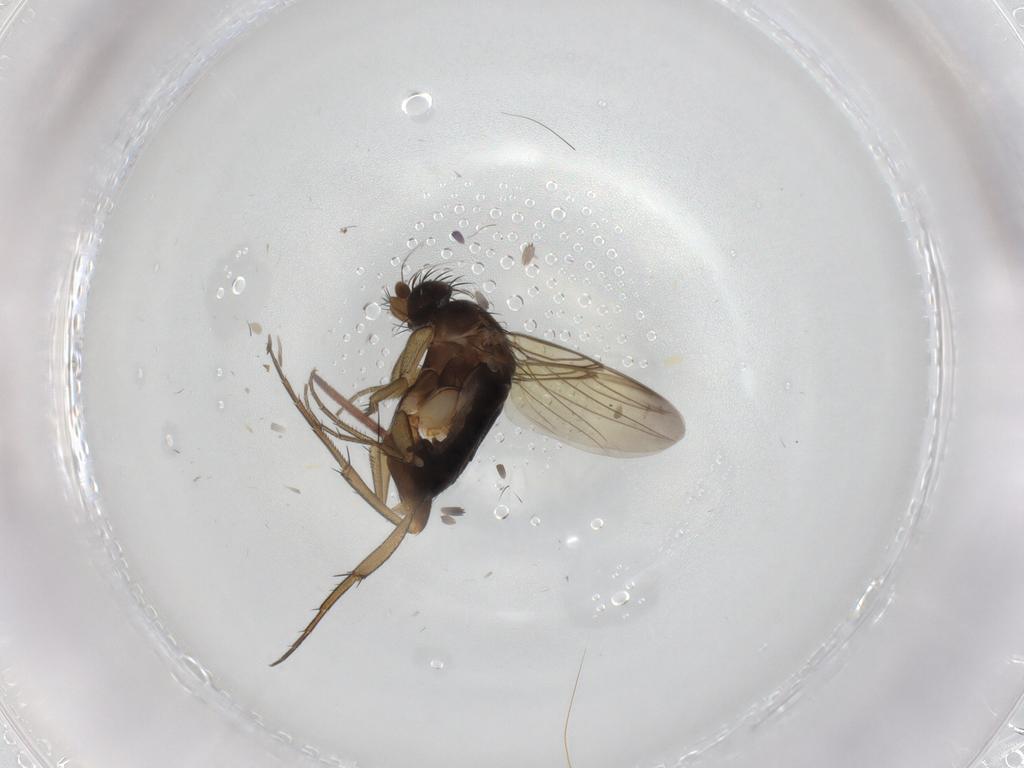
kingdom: Animalia
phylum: Arthropoda
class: Insecta
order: Diptera
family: Phoridae
